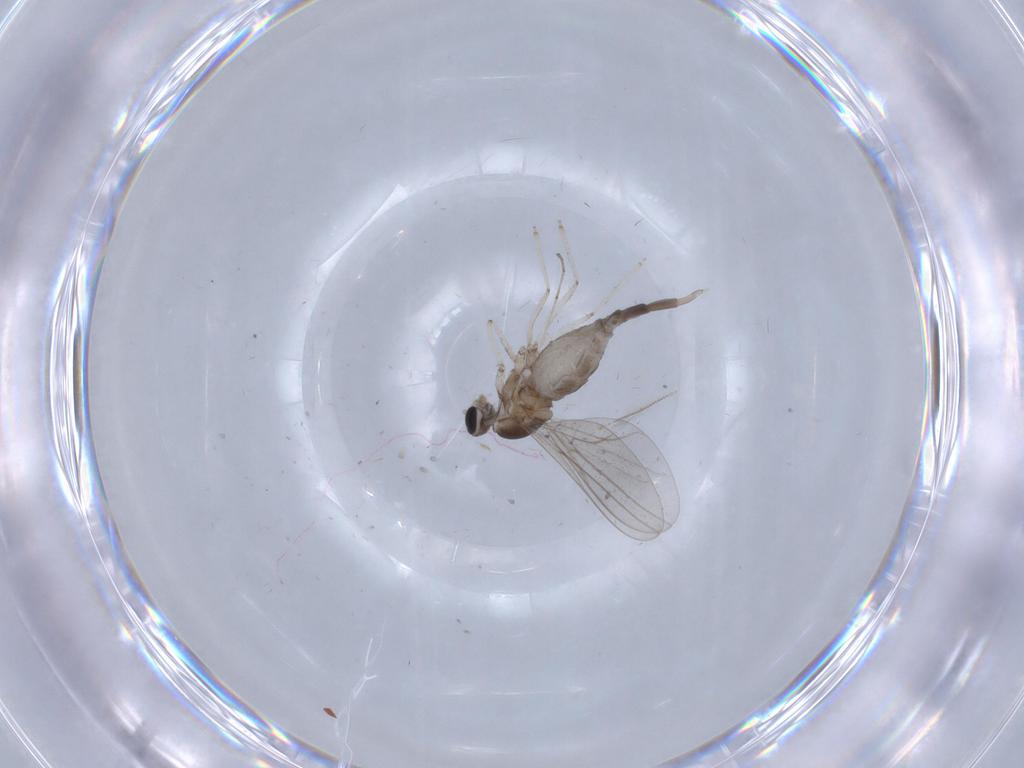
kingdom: Animalia
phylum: Arthropoda
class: Insecta
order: Diptera
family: Cecidomyiidae
